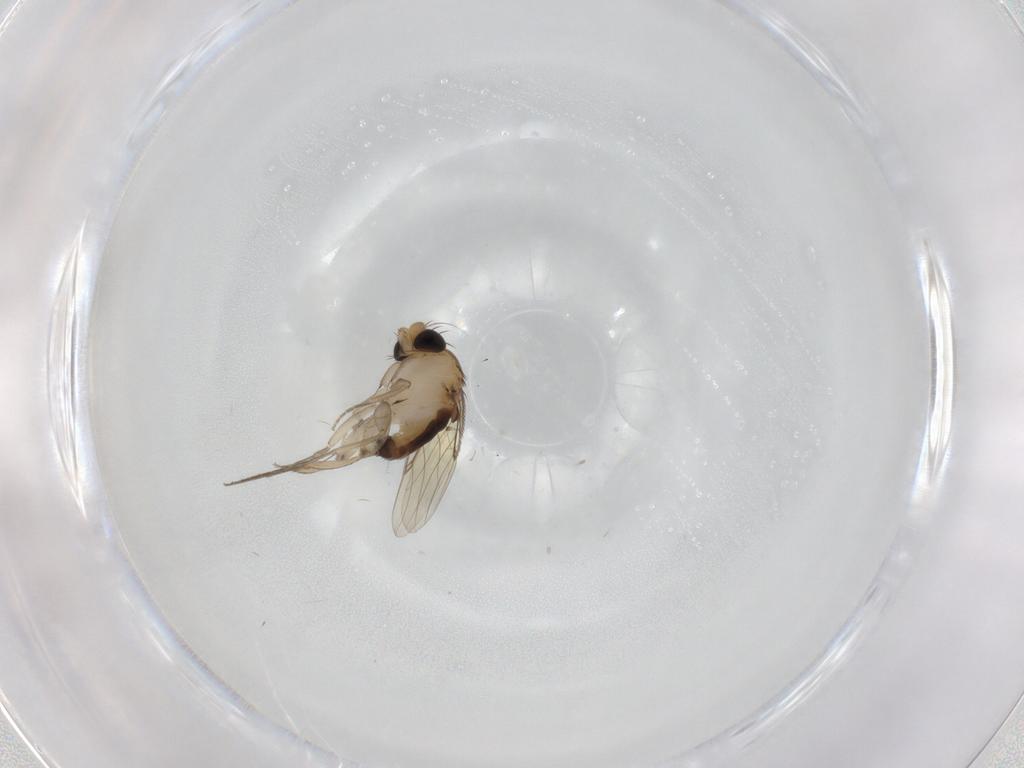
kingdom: Animalia
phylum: Arthropoda
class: Insecta
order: Diptera
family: Phoridae
